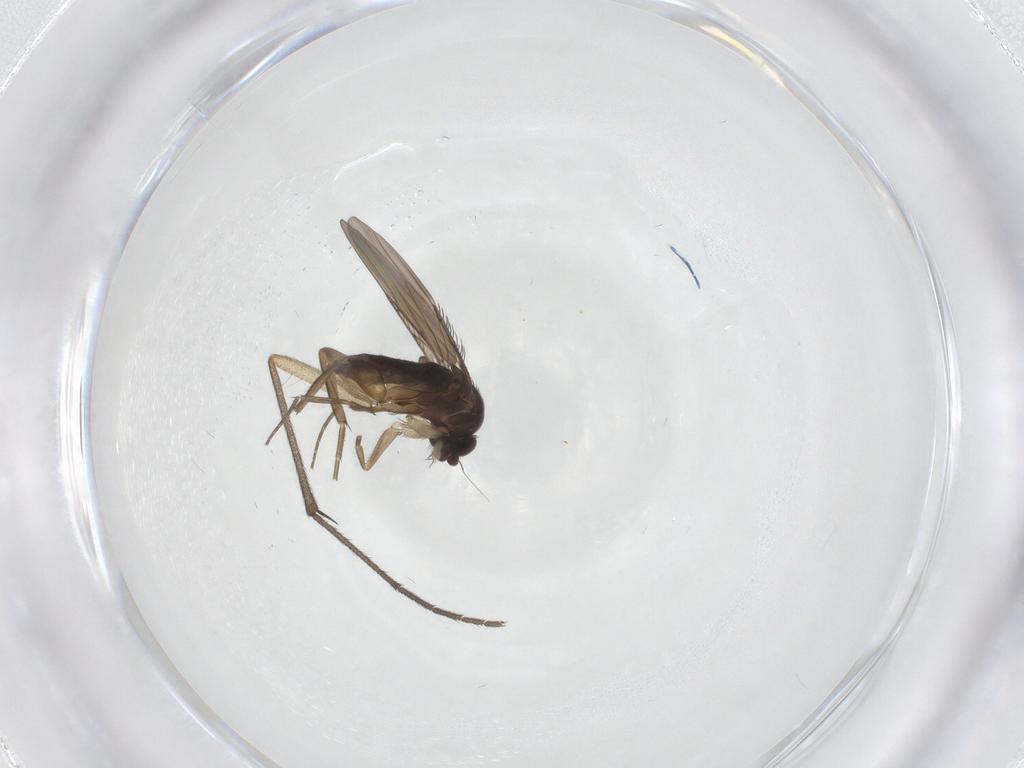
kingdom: Animalia
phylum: Arthropoda
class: Insecta
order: Diptera
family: Phoridae
